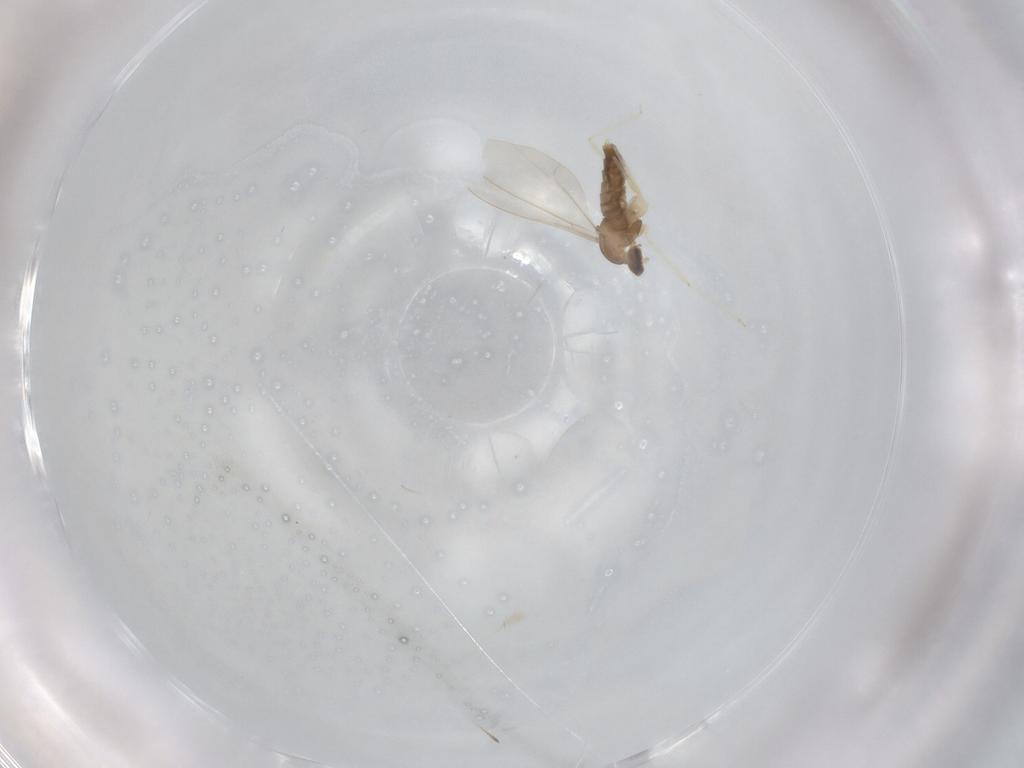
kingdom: Animalia
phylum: Arthropoda
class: Insecta
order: Diptera
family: Cecidomyiidae
